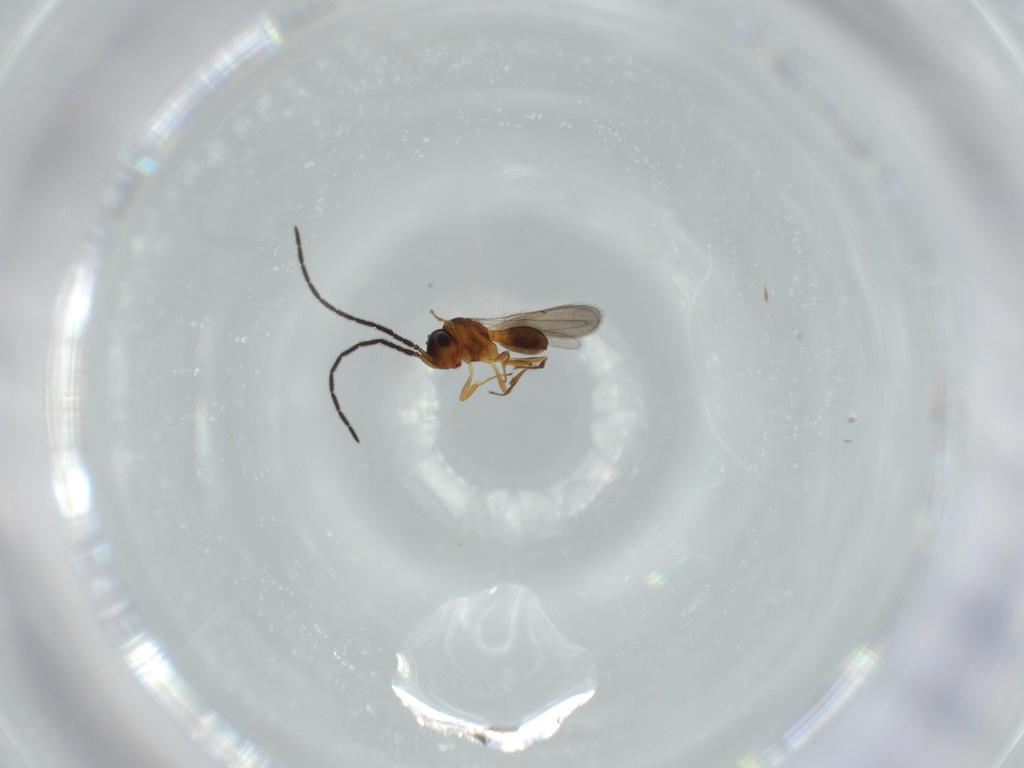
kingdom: Animalia
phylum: Arthropoda
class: Insecta
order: Hymenoptera
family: Scelionidae
